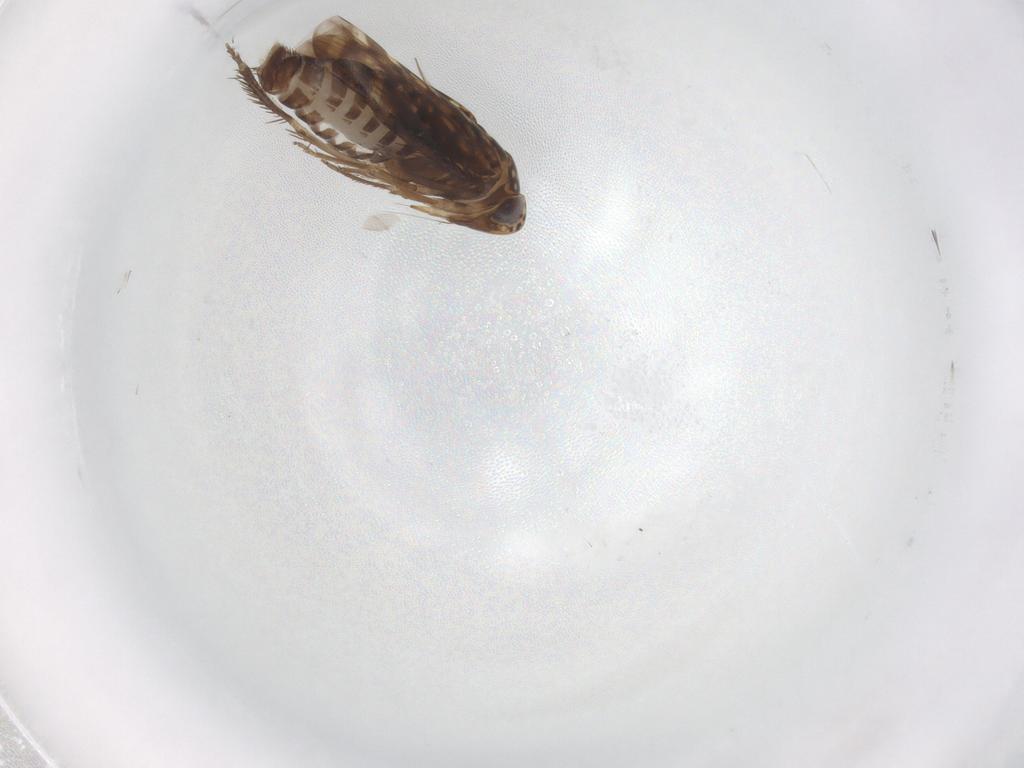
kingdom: Animalia
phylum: Arthropoda
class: Insecta
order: Hemiptera
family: Cicadellidae
